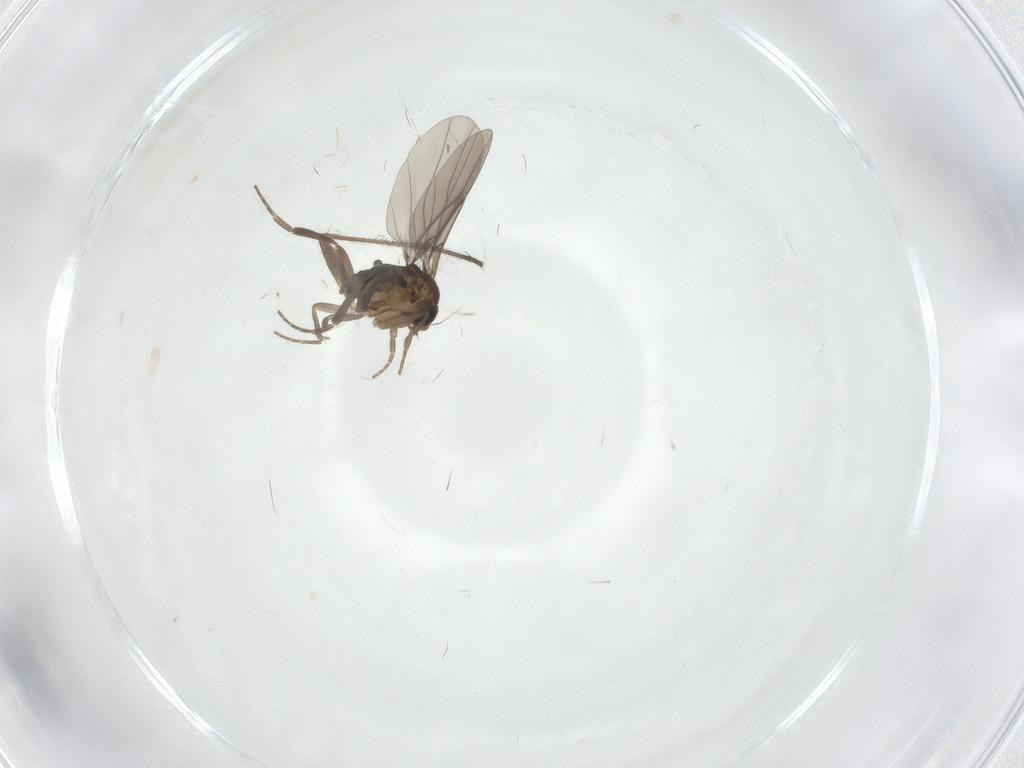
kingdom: Animalia
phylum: Arthropoda
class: Insecta
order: Diptera
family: Phoridae
